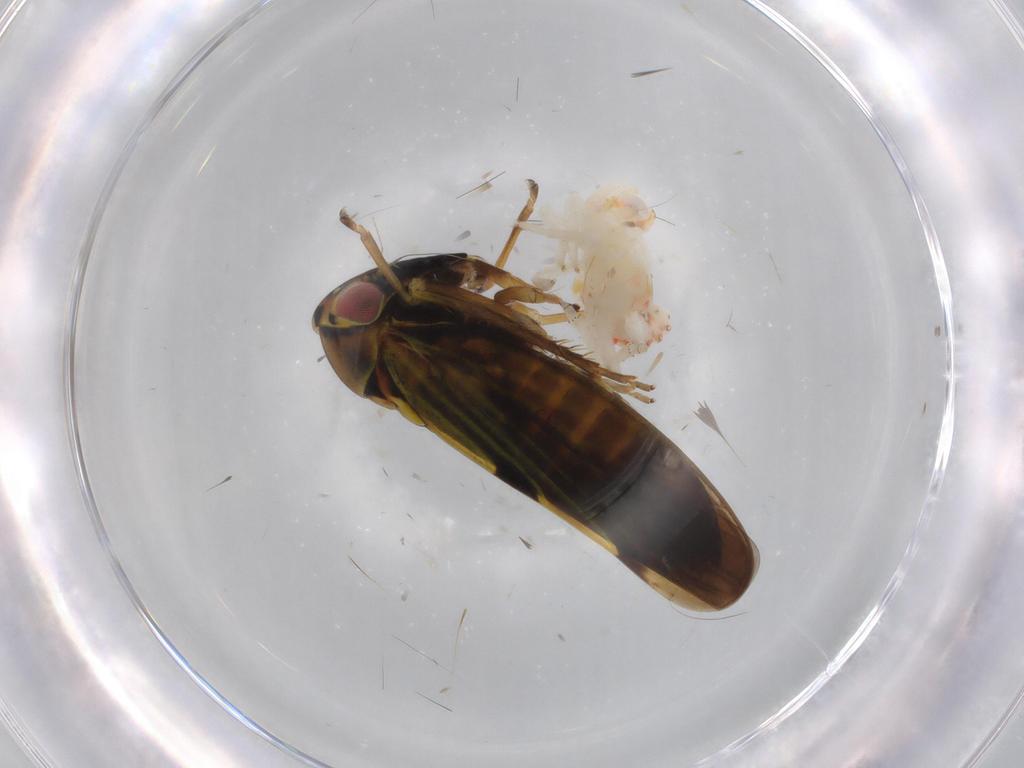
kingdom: Animalia
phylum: Arthropoda
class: Insecta
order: Hemiptera
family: Cicadellidae
